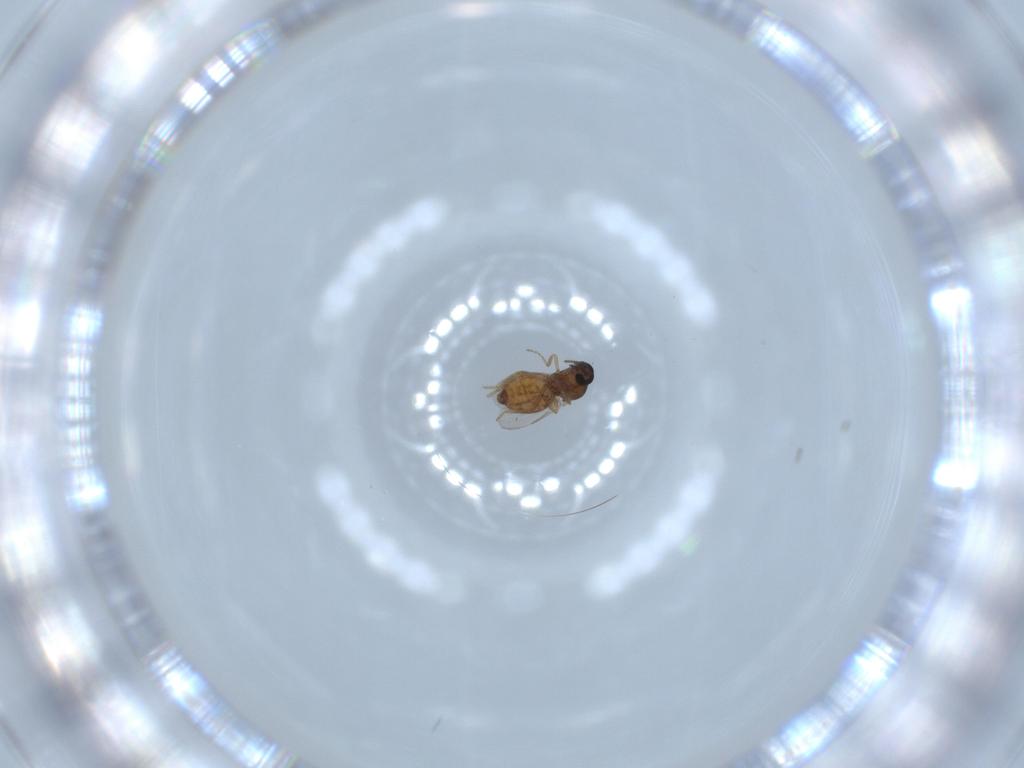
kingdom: Animalia
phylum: Arthropoda
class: Insecta
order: Diptera
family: Ceratopogonidae
